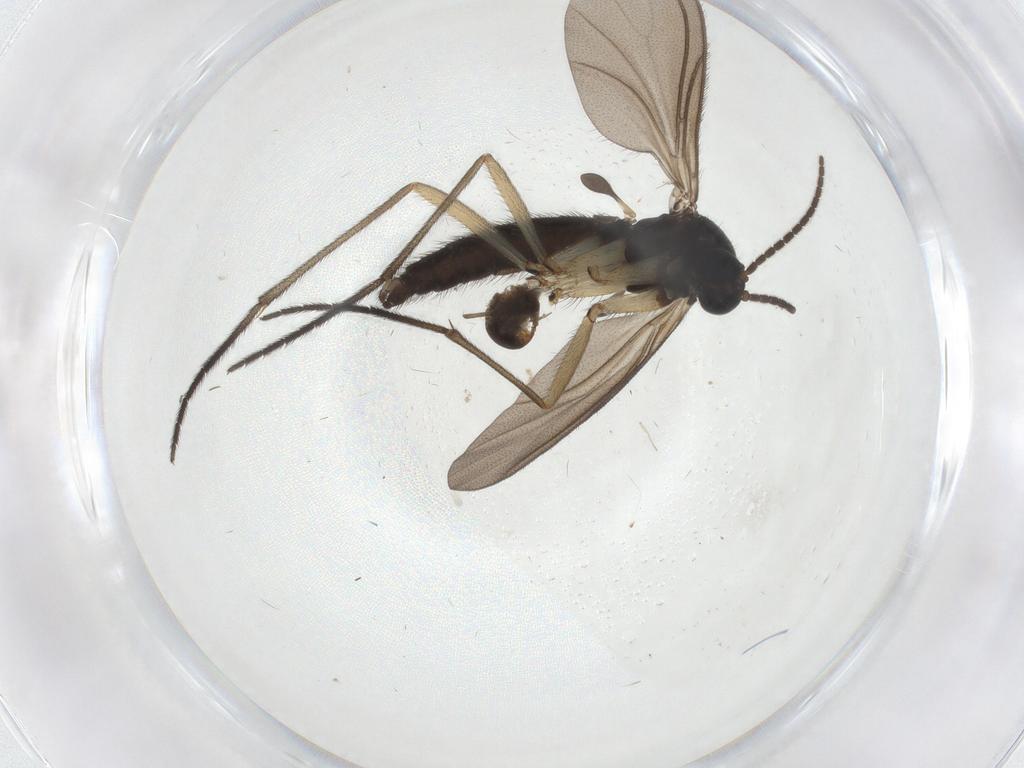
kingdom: Animalia
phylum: Arthropoda
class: Insecta
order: Diptera
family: Sciaridae
